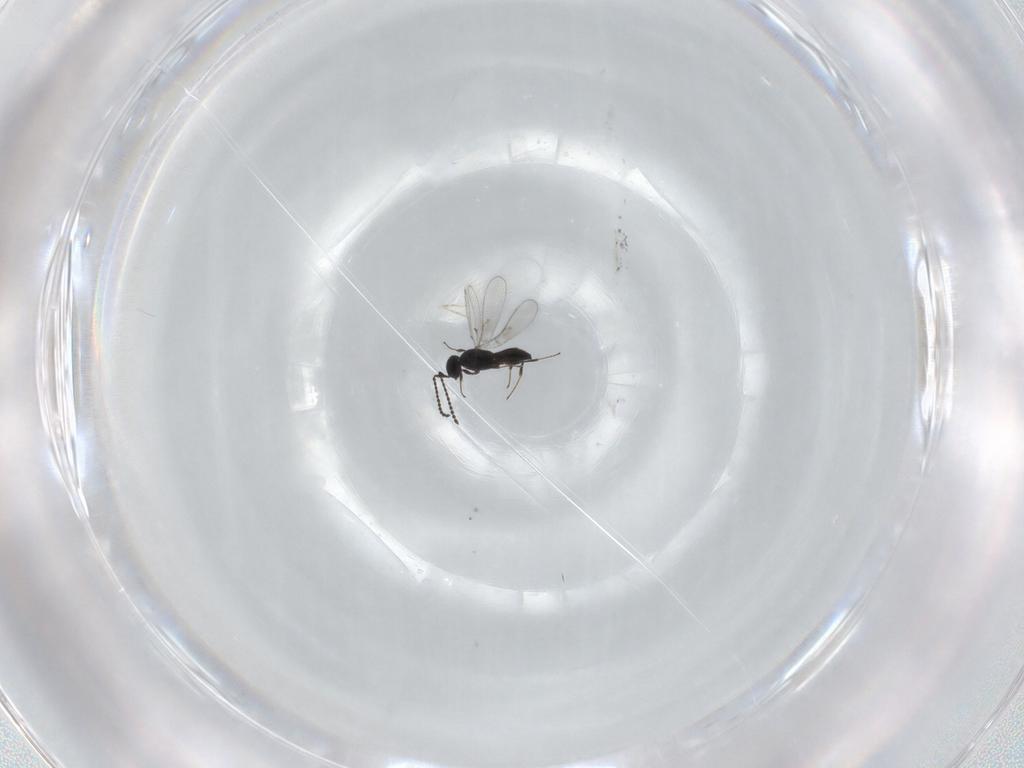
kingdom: Animalia
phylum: Arthropoda
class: Insecta
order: Hymenoptera
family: Scelionidae
